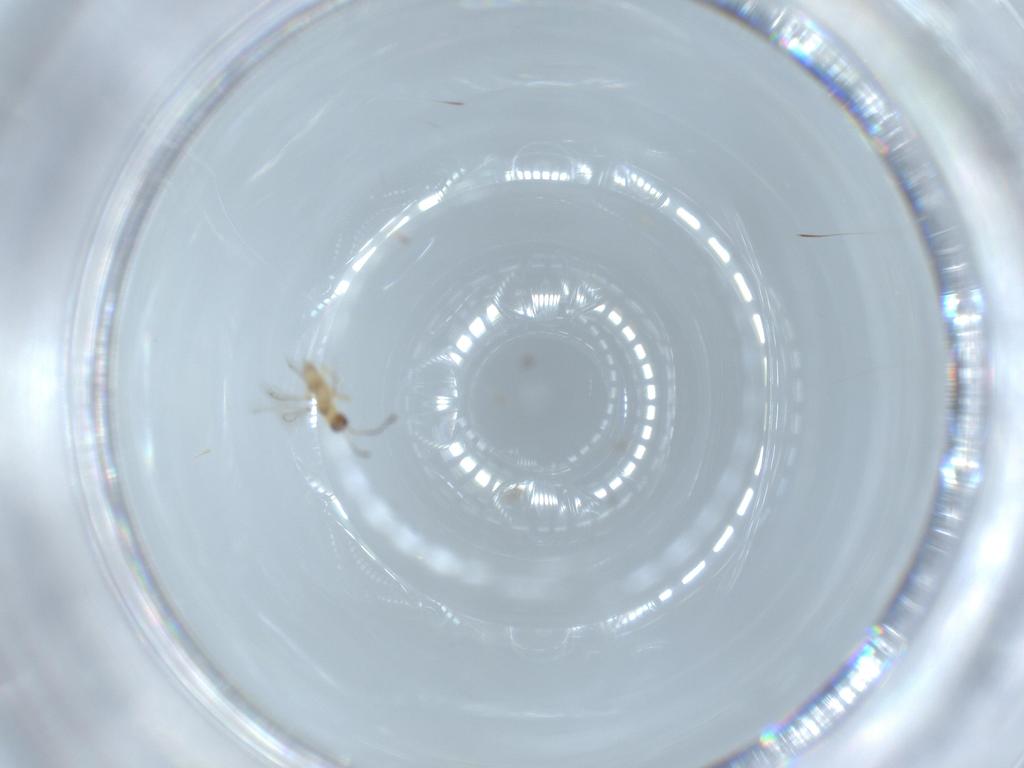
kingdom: Animalia
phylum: Arthropoda
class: Insecta
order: Hymenoptera
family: Mymaridae
